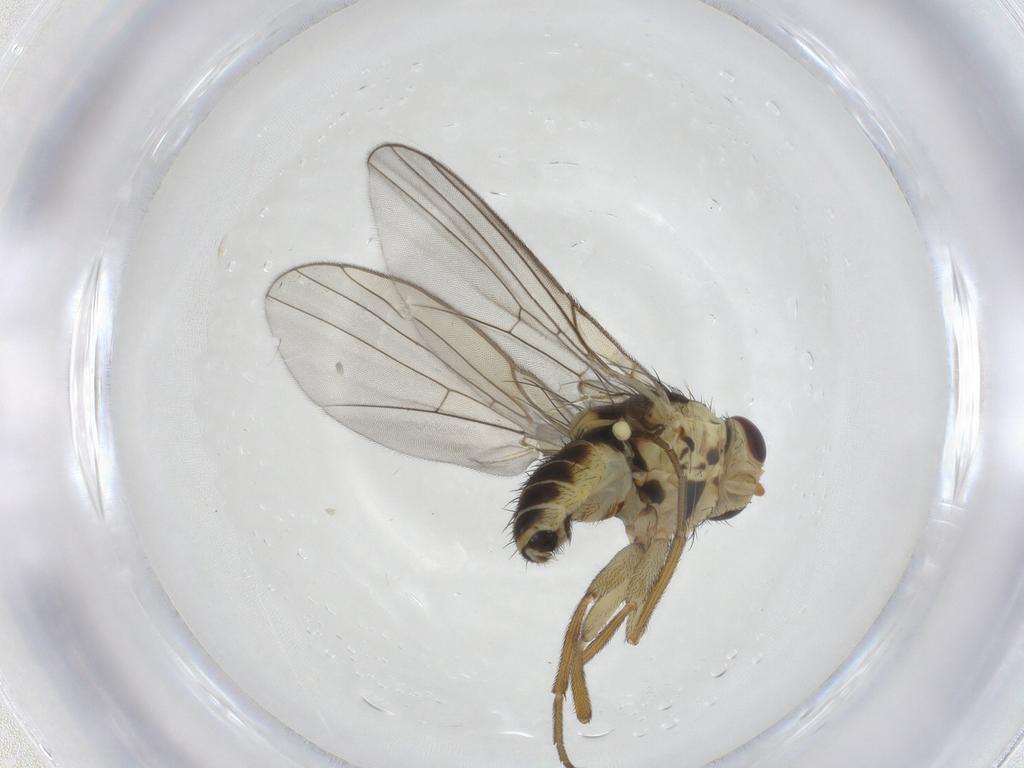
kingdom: Animalia
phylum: Arthropoda
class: Insecta
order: Diptera
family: Agromyzidae
